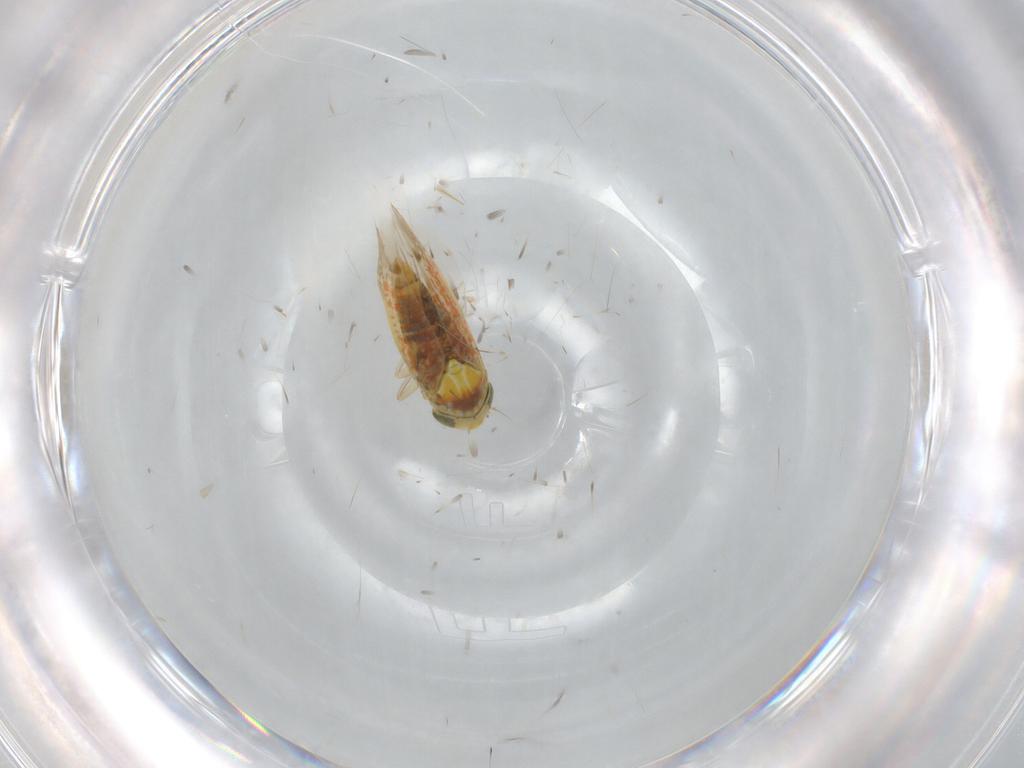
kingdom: Animalia
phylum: Arthropoda
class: Insecta
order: Hemiptera
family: Cicadellidae
